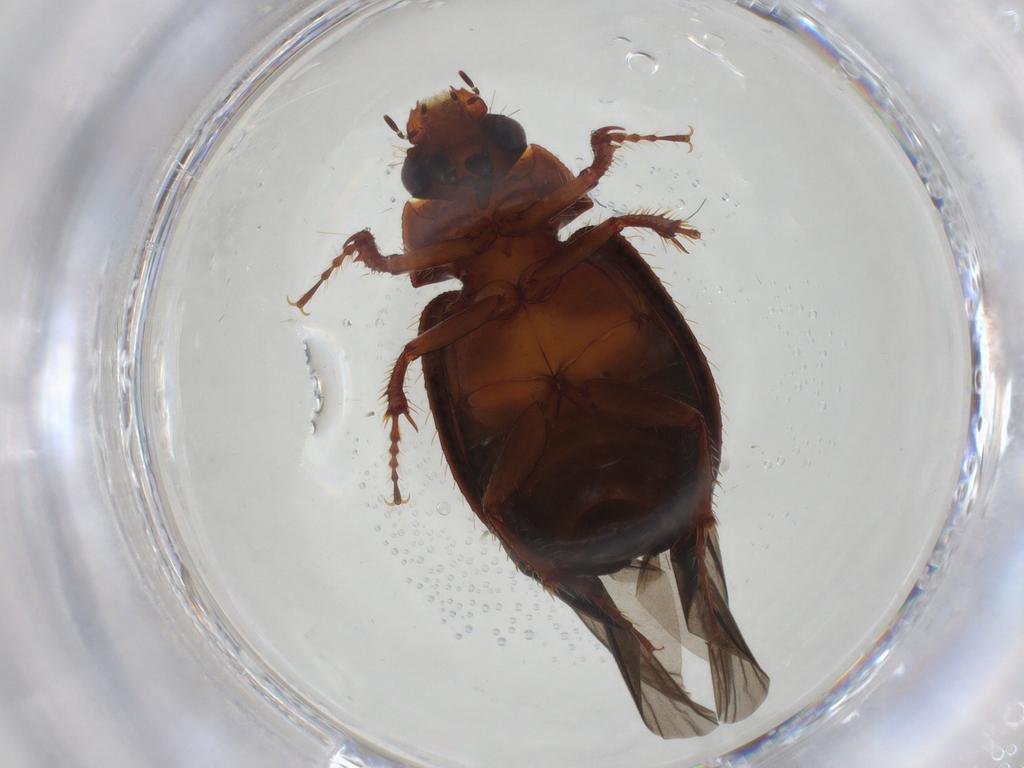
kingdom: Animalia
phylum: Arthropoda
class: Insecta
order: Coleoptera
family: Hybosoridae
